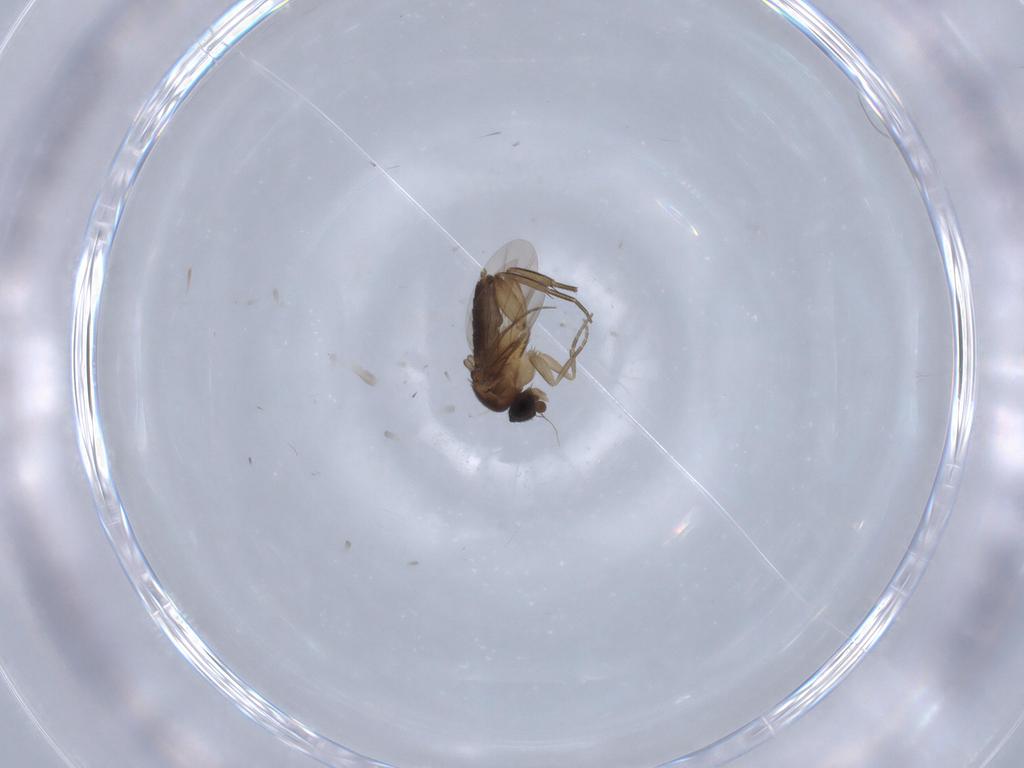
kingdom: Animalia
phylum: Arthropoda
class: Insecta
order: Diptera
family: Phoridae
